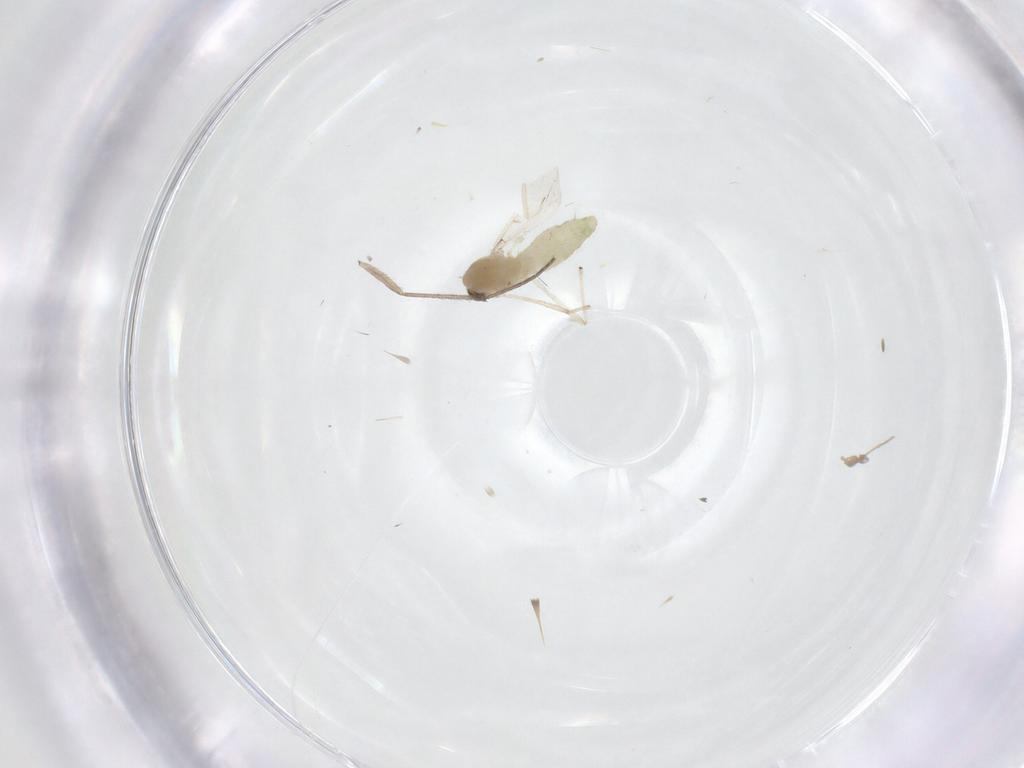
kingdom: Animalia
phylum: Arthropoda
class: Insecta
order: Diptera
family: Chironomidae
